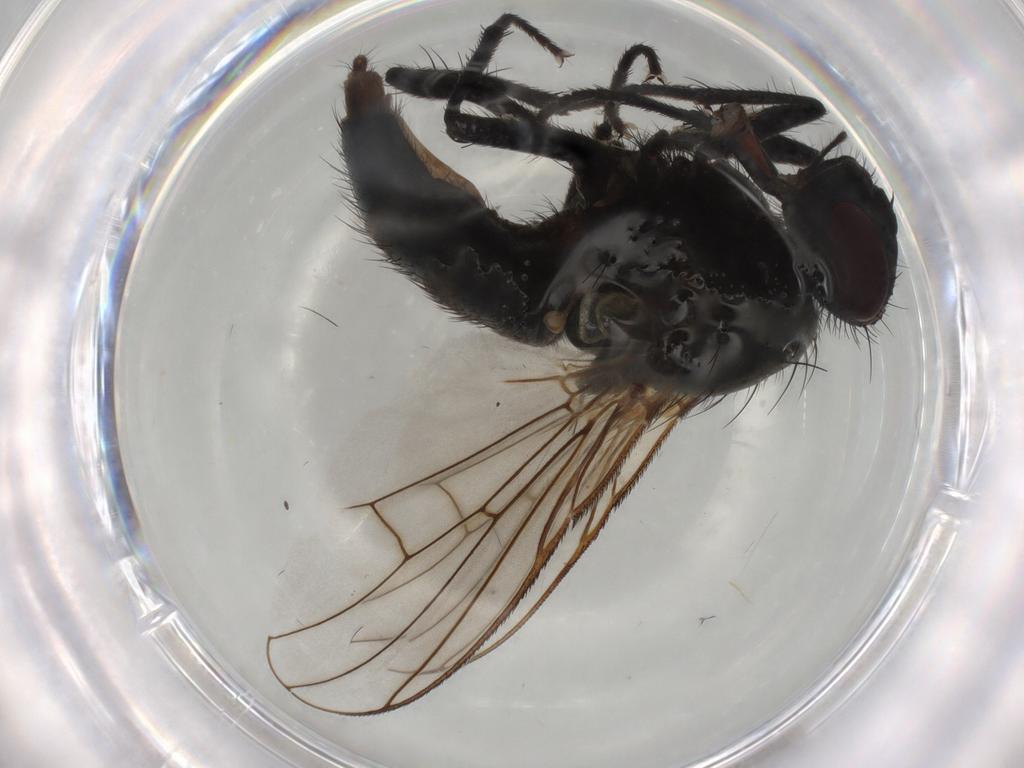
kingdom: Animalia
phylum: Arthropoda
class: Insecta
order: Diptera
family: Muscidae
